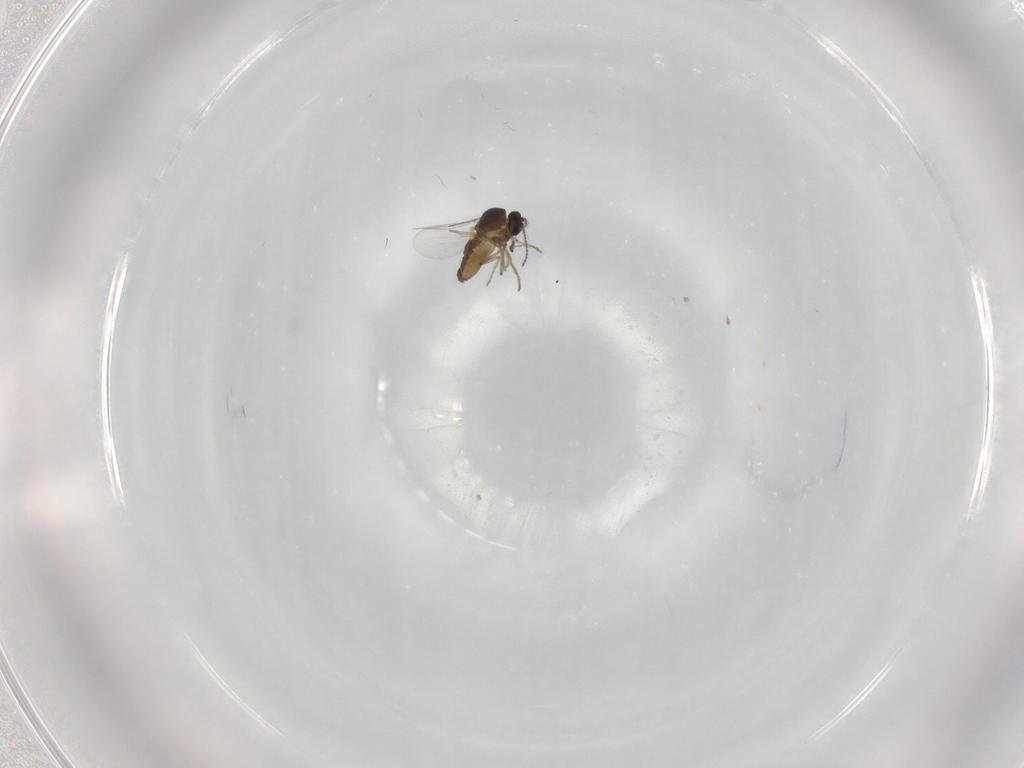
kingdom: Animalia
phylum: Arthropoda
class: Insecta
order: Diptera
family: Ceratopogonidae
